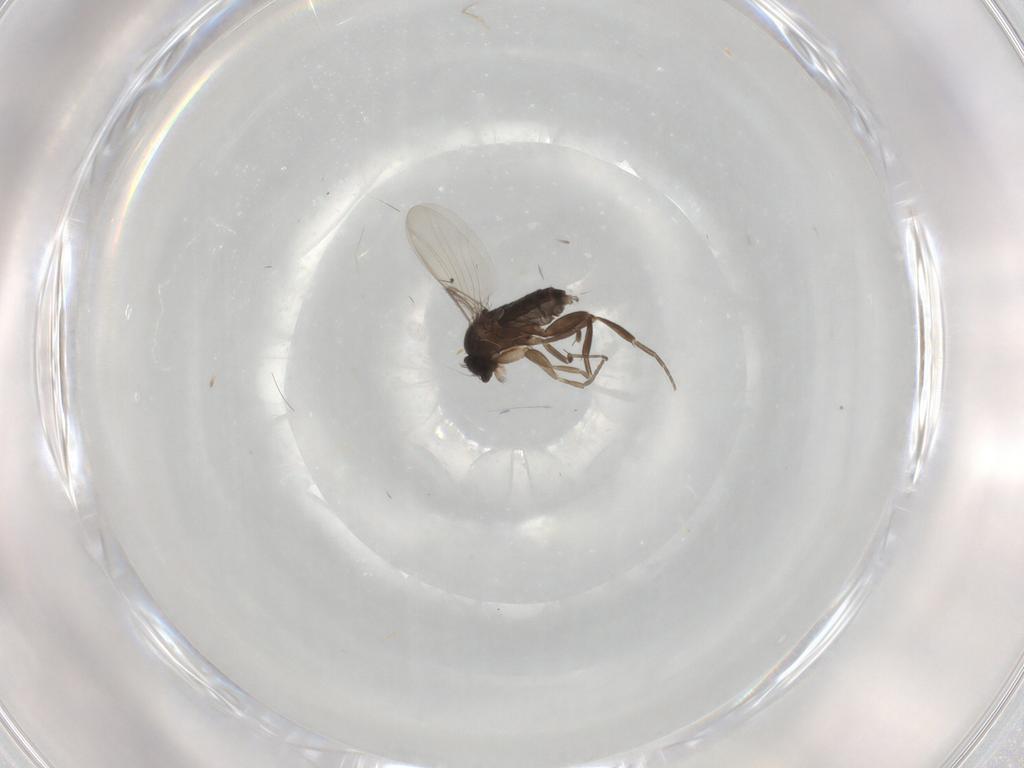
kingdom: Animalia
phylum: Arthropoda
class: Insecta
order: Diptera
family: Phoridae
